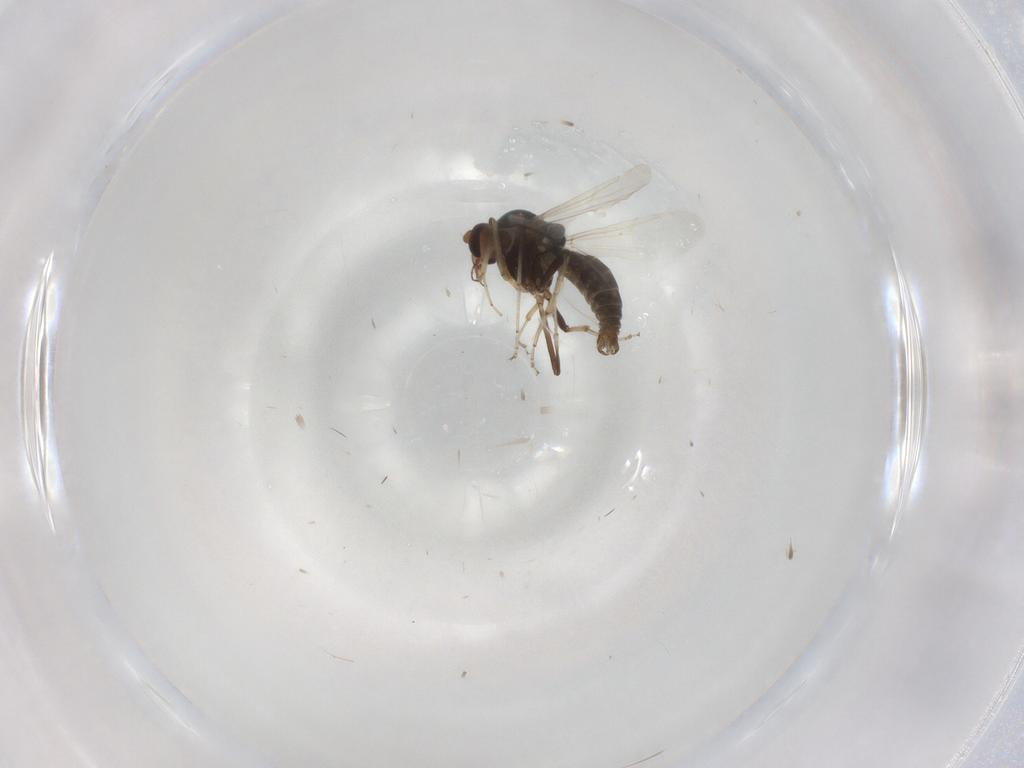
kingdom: Animalia
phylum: Arthropoda
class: Insecta
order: Diptera
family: Ceratopogonidae
